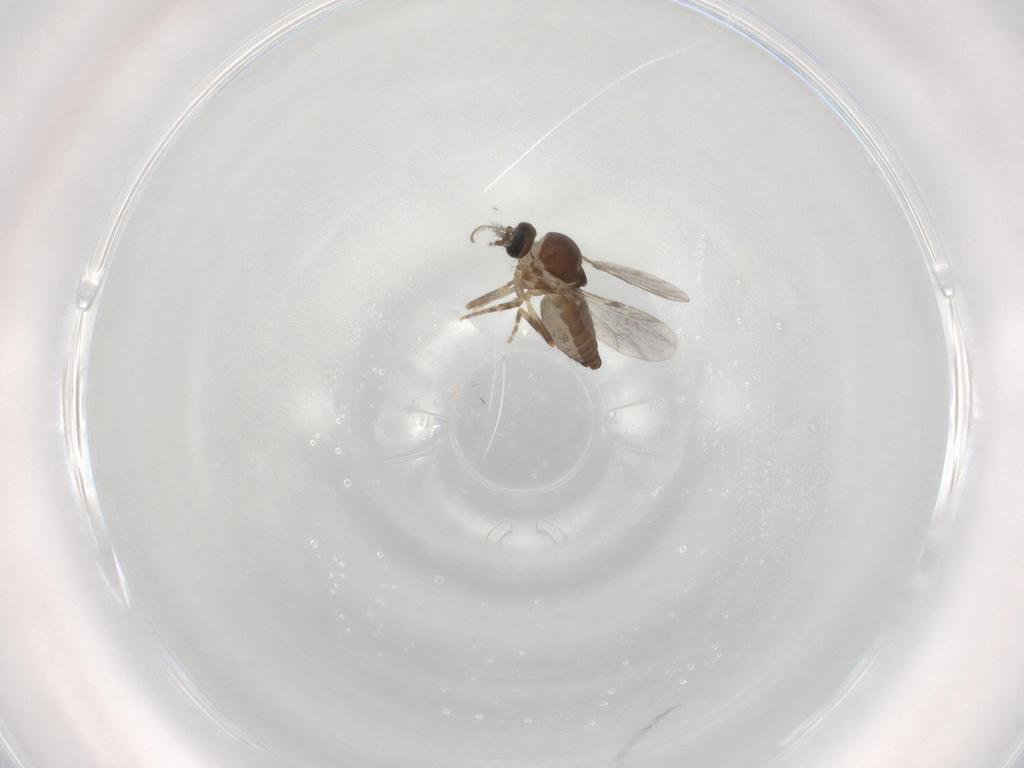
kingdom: Animalia
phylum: Arthropoda
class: Insecta
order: Diptera
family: Ceratopogonidae
